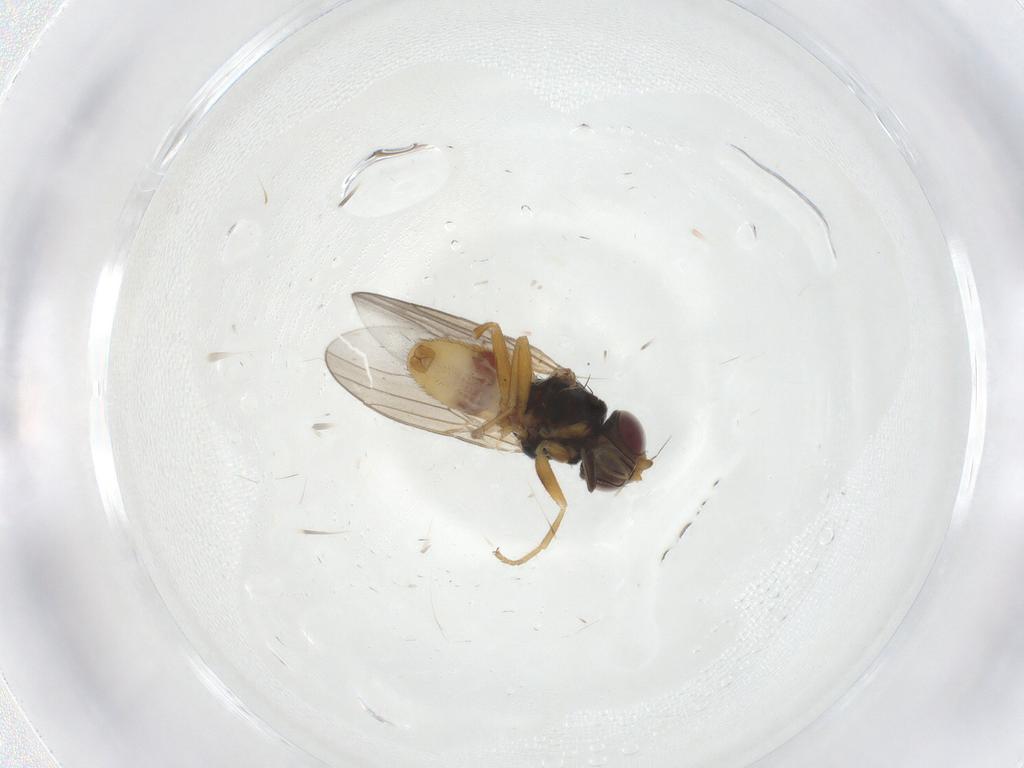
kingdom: Animalia
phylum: Arthropoda
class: Insecta
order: Diptera
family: Chloropidae
